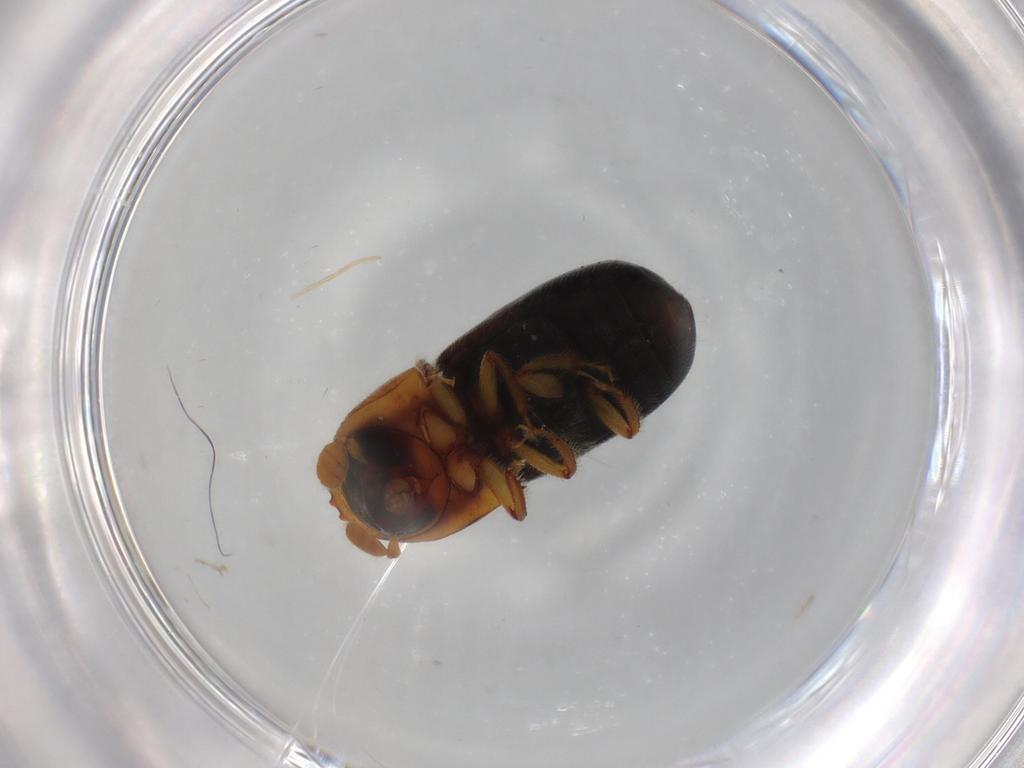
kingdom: Animalia
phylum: Arthropoda
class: Insecta
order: Coleoptera
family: Curculionidae
